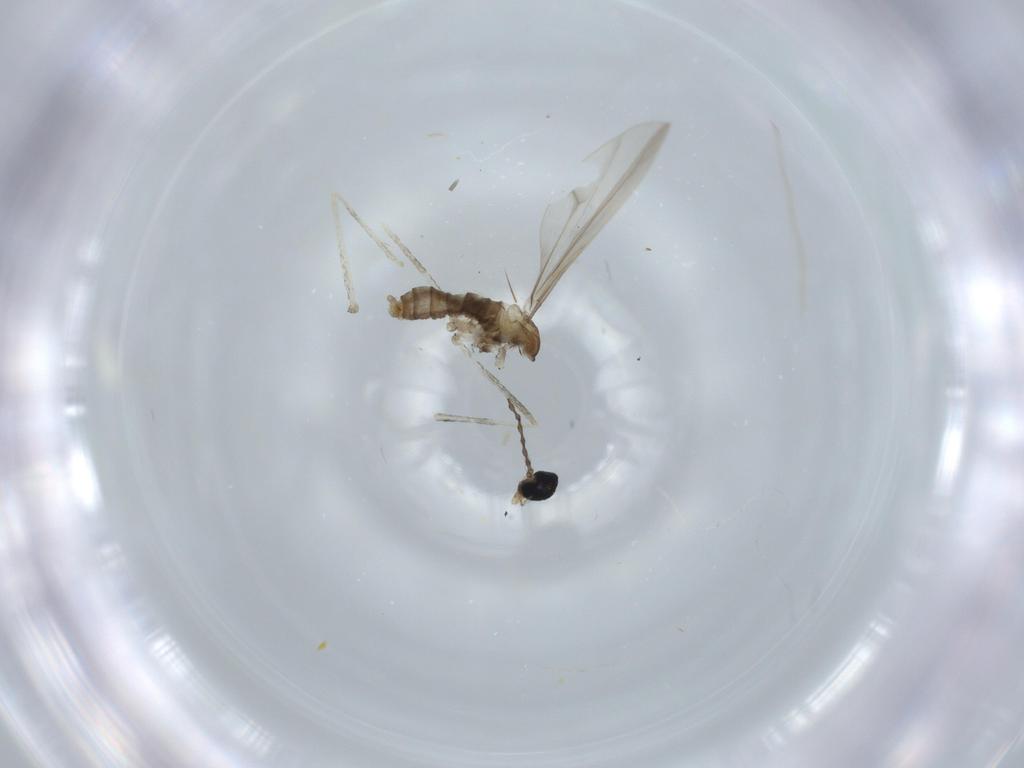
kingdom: Animalia
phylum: Arthropoda
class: Insecta
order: Diptera
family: Cecidomyiidae
